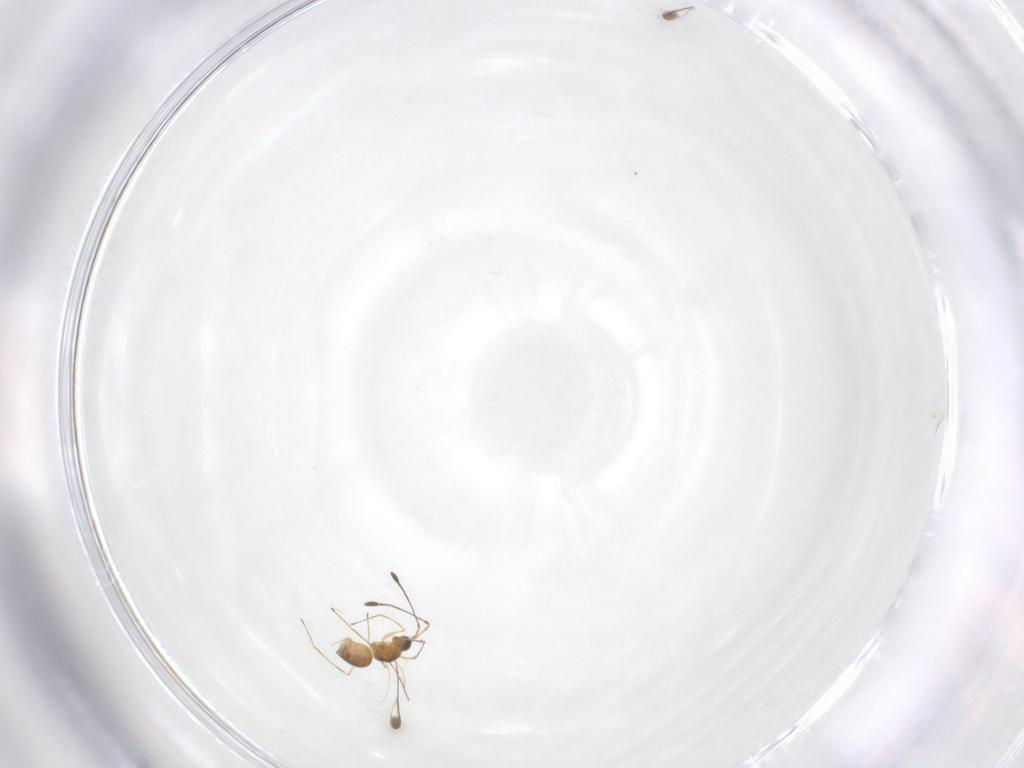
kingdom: Animalia
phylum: Arthropoda
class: Insecta
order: Hymenoptera
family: Mymaridae
